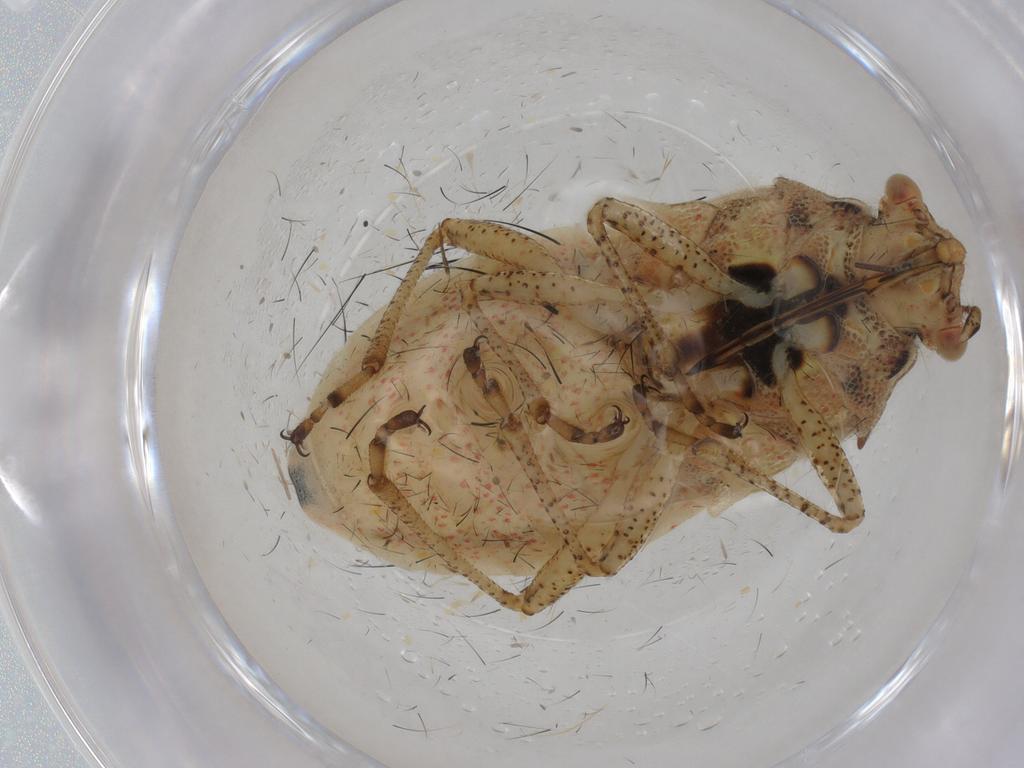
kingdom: Animalia
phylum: Arthropoda
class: Insecta
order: Hemiptera
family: Rhopalidae
